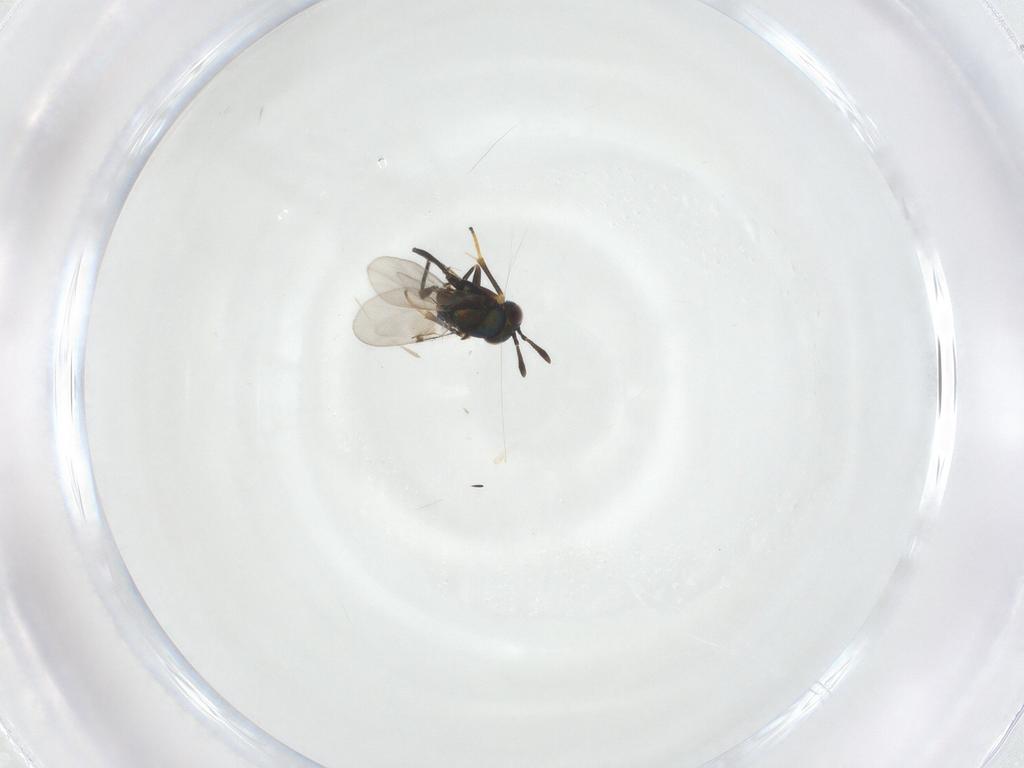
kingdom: Animalia
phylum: Arthropoda
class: Insecta
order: Hymenoptera
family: Encyrtidae
